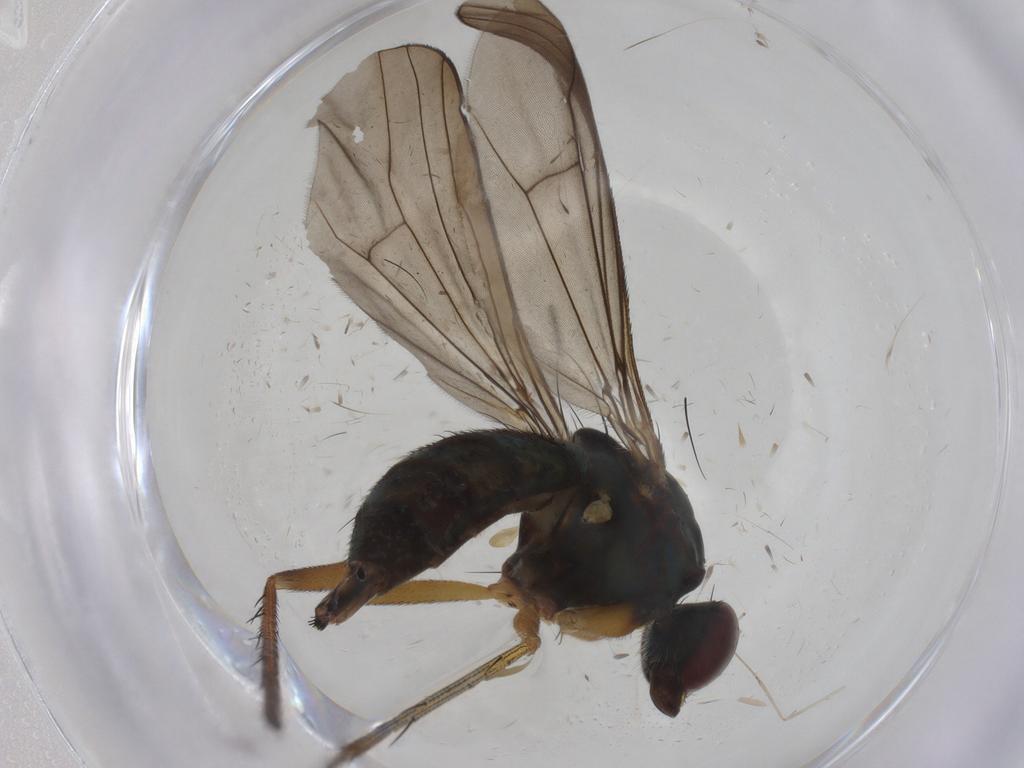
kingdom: Animalia
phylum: Arthropoda
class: Insecta
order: Diptera
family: Dolichopodidae
